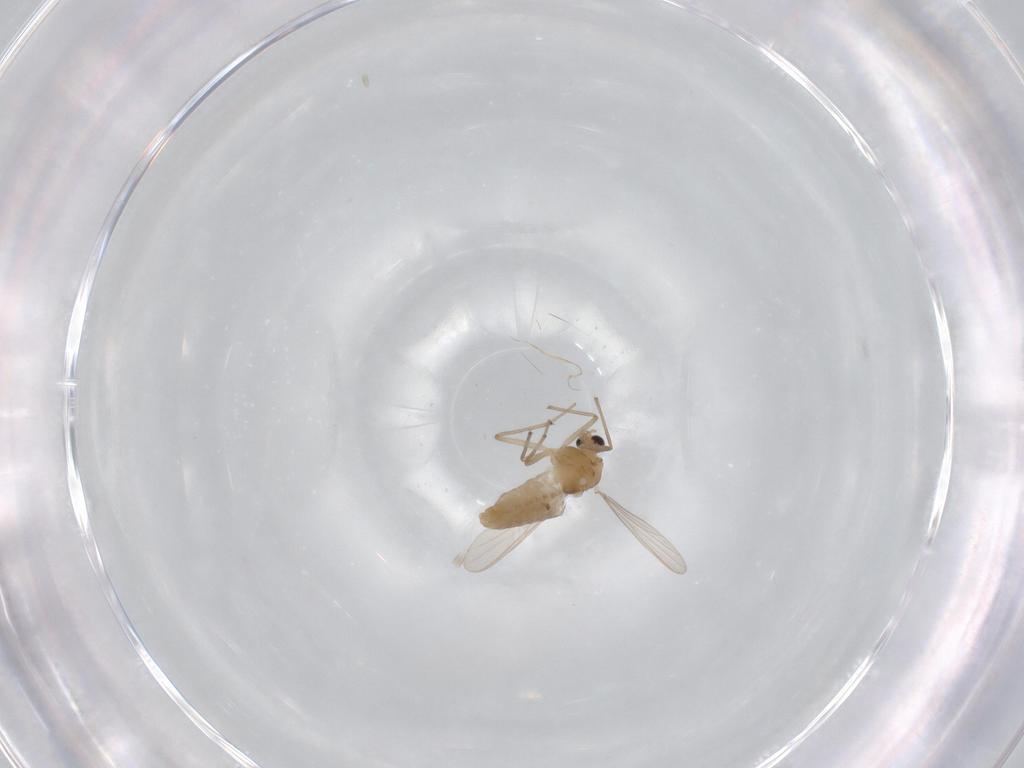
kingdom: Animalia
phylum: Arthropoda
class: Insecta
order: Diptera
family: Chironomidae
